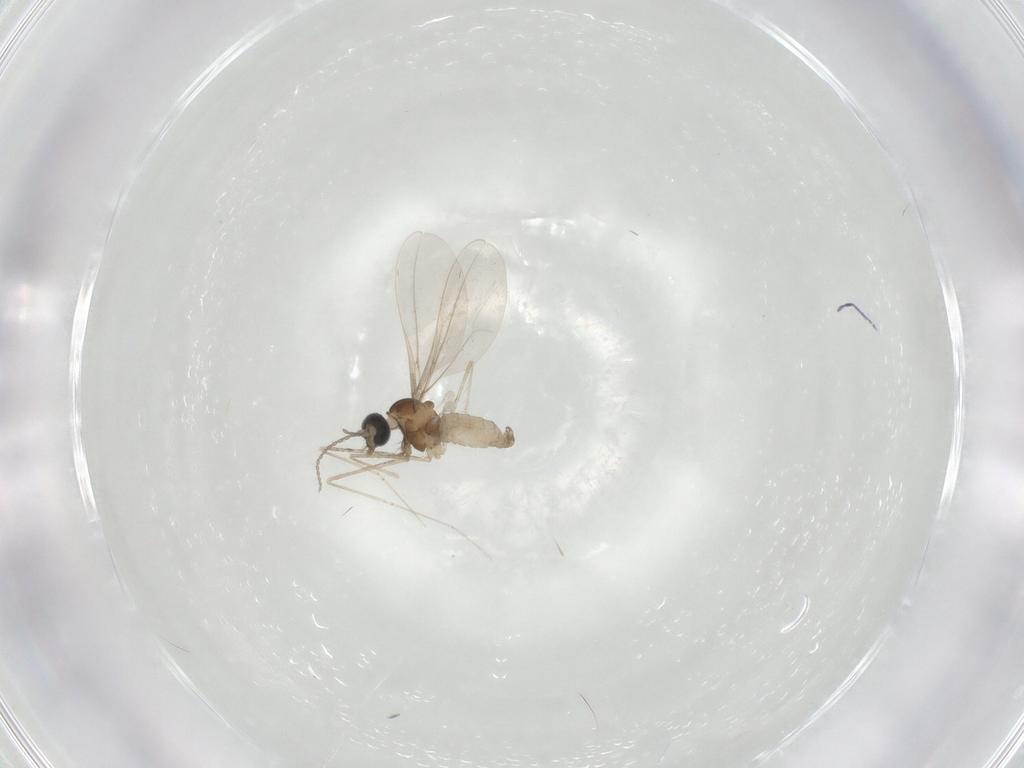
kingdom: Animalia
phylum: Arthropoda
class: Insecta
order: Diptera
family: Cecidomyiidae
